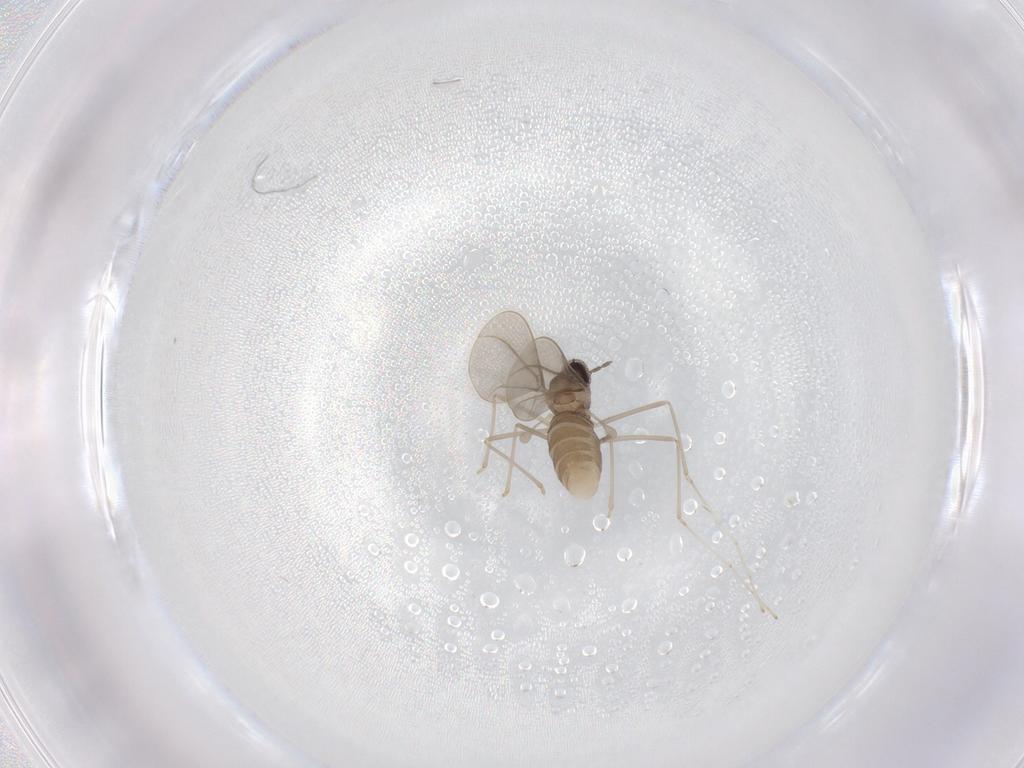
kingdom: Animalia
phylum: Arthropoda
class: Insecta
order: Diptera
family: Cecidomyiidae
